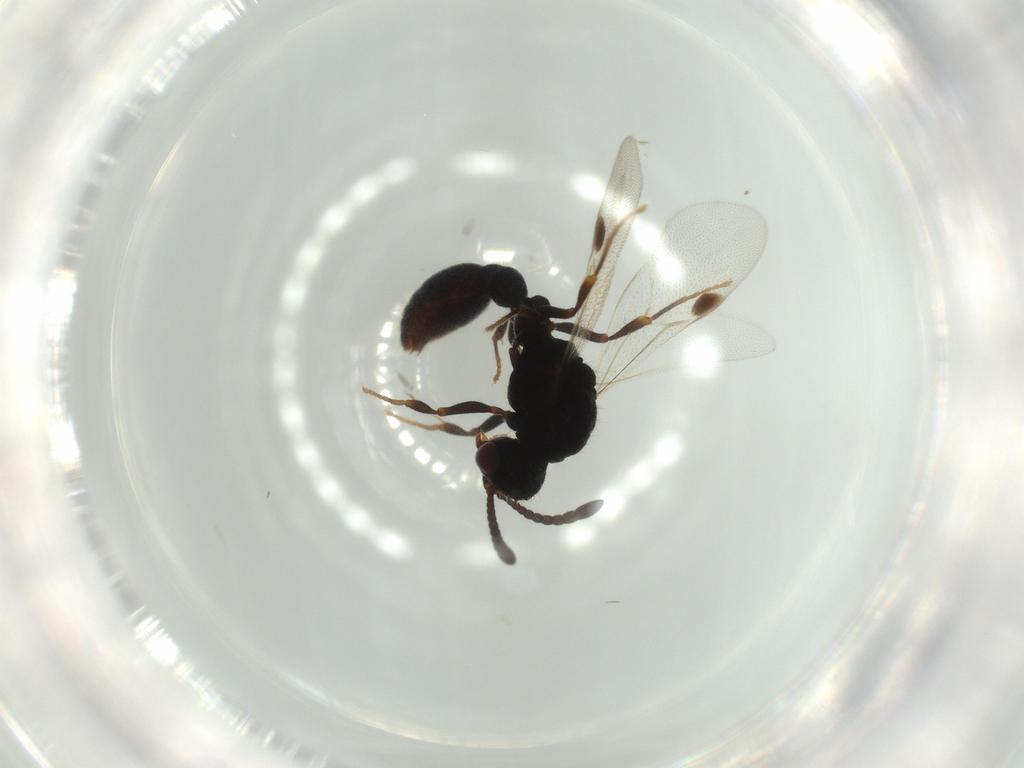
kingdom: Animalia
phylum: Arthropoda
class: Insecta
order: Hymenoptera
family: Formicidae
